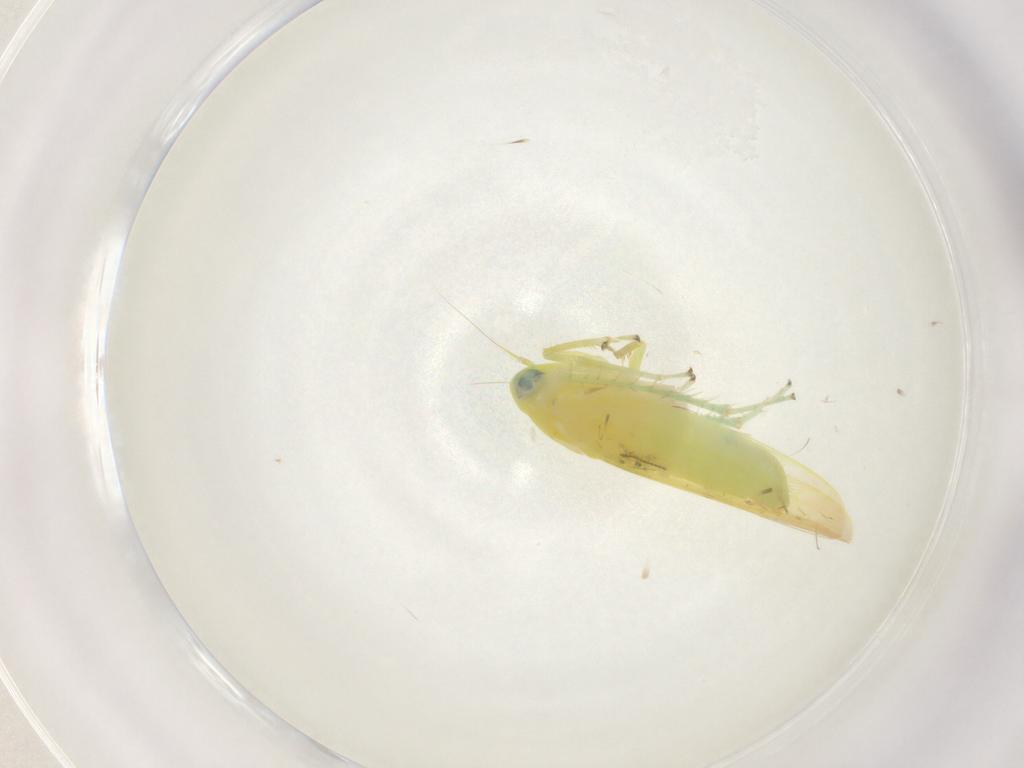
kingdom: Animalia
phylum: Arthropoda
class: Insecta
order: Hemiptera
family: Cicadellidae
